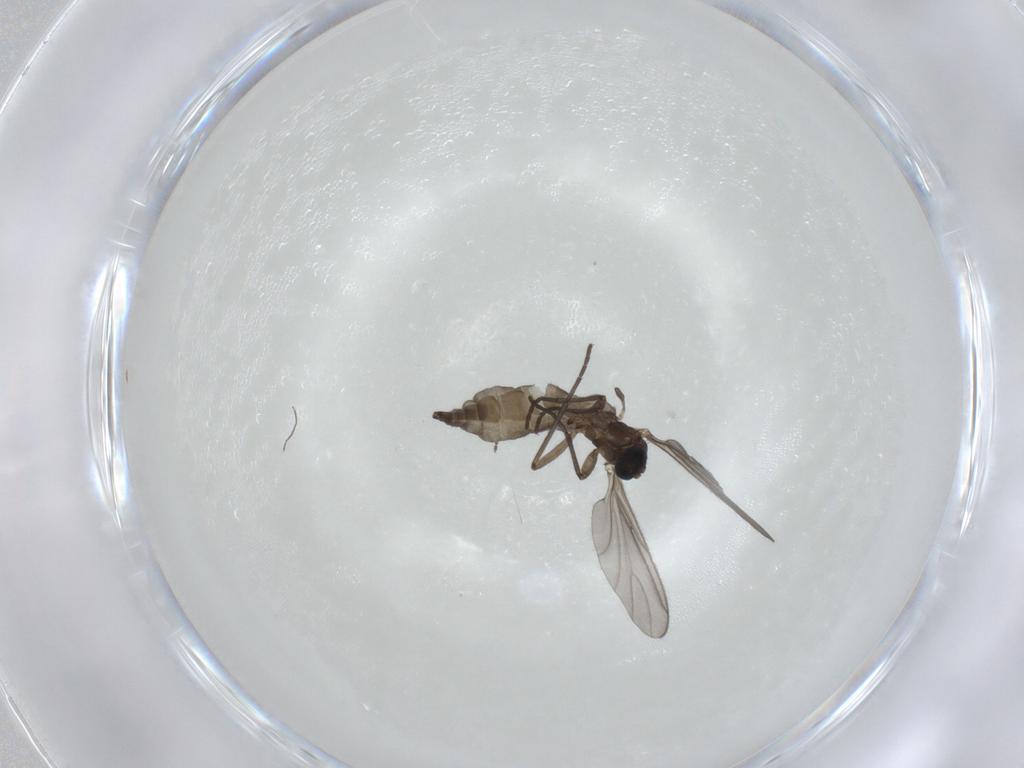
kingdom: Animalia
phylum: Arthropoda
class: Insecta
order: Diptera
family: Sciaridae
